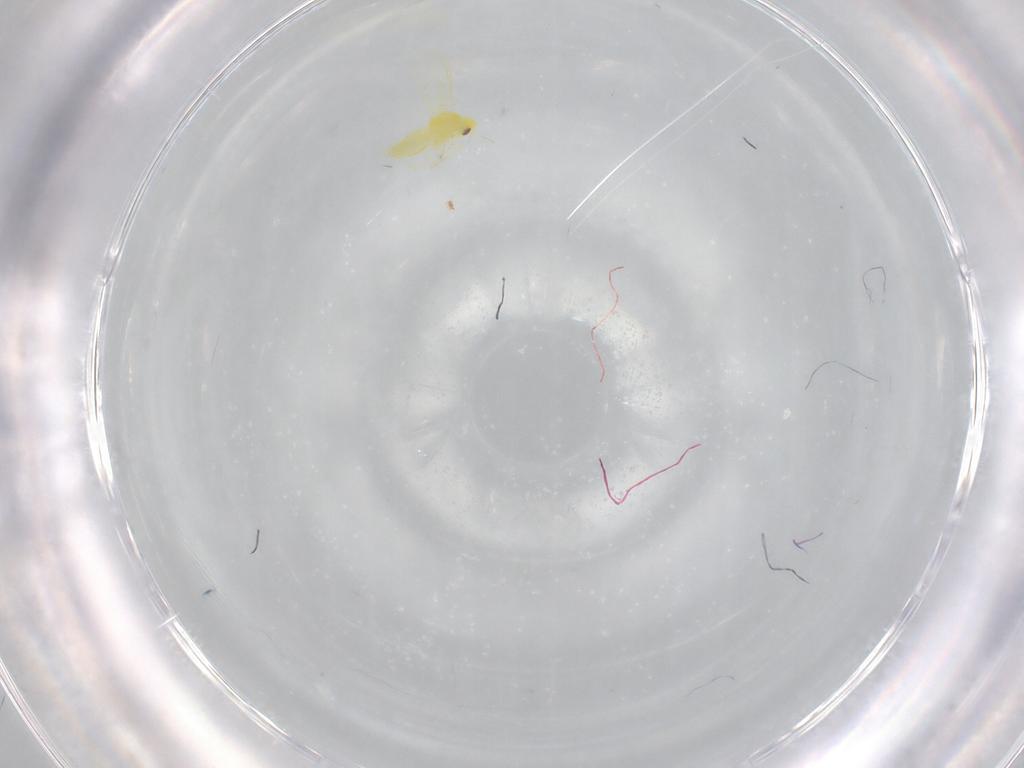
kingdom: Animalia
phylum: Arthropoda
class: Insecta
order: Hemiptera
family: Aleyrodidae
